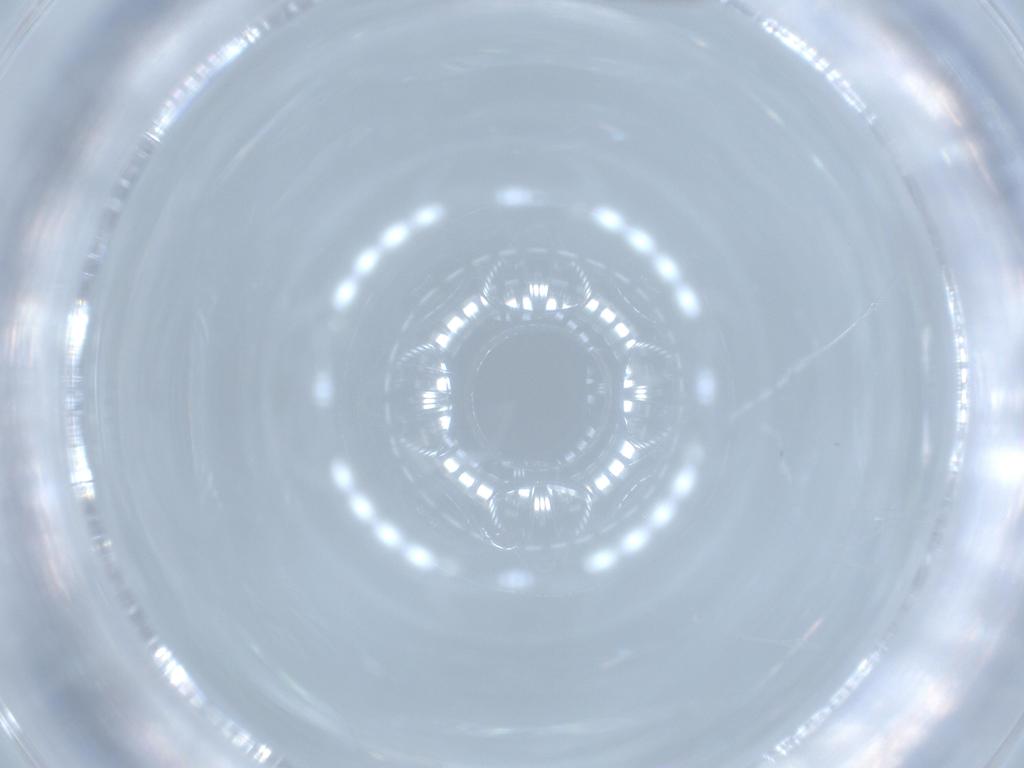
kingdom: Animalia
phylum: Arthropoda
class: Insecta
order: Diptera
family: Chironomidae
